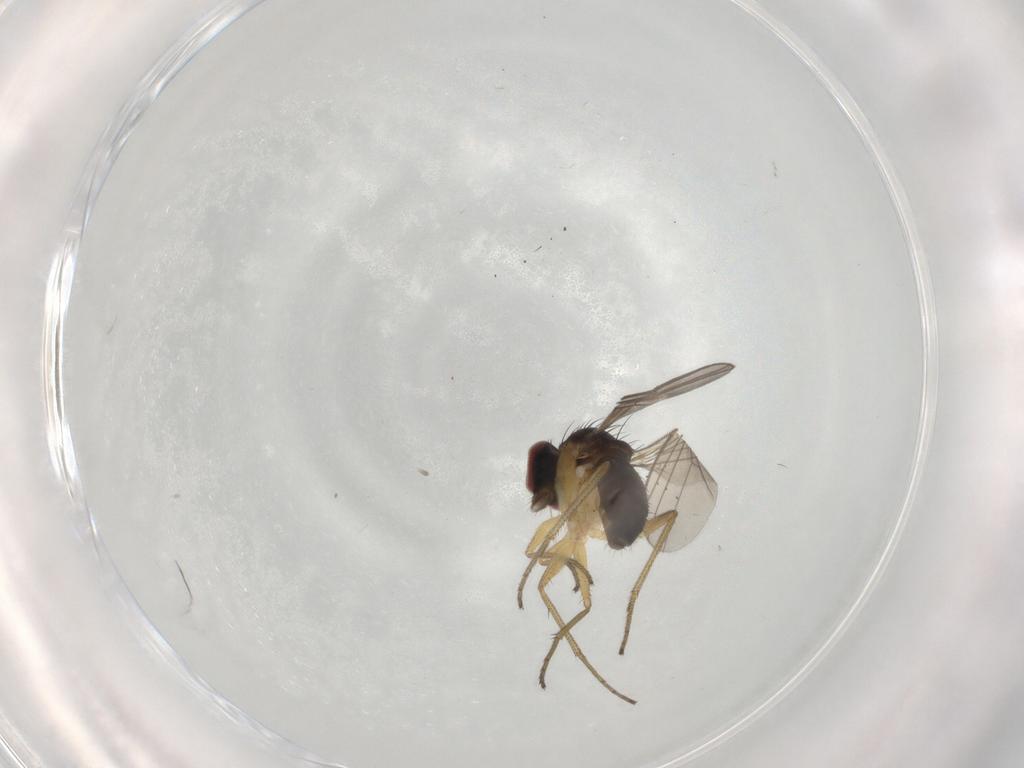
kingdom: Animalia
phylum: Arthropoda
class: Insecta
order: Diptera
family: Dolichopodidae
